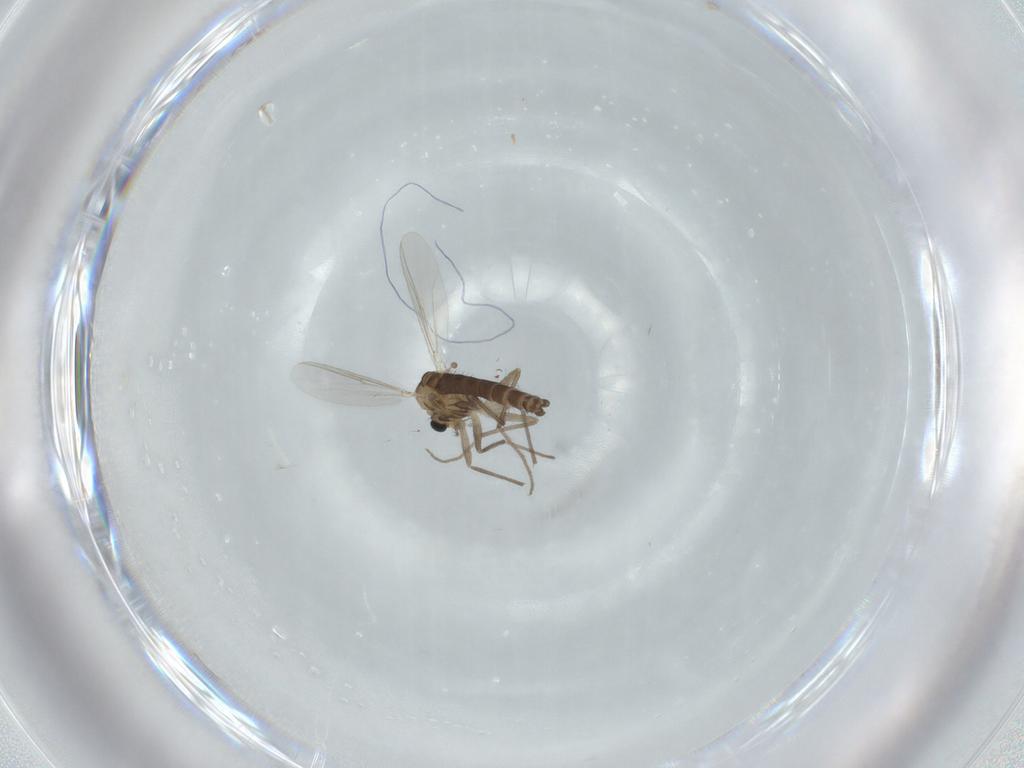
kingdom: Animalia
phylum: Arthropoda
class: Insecta
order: Diptera
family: Chironomidae
